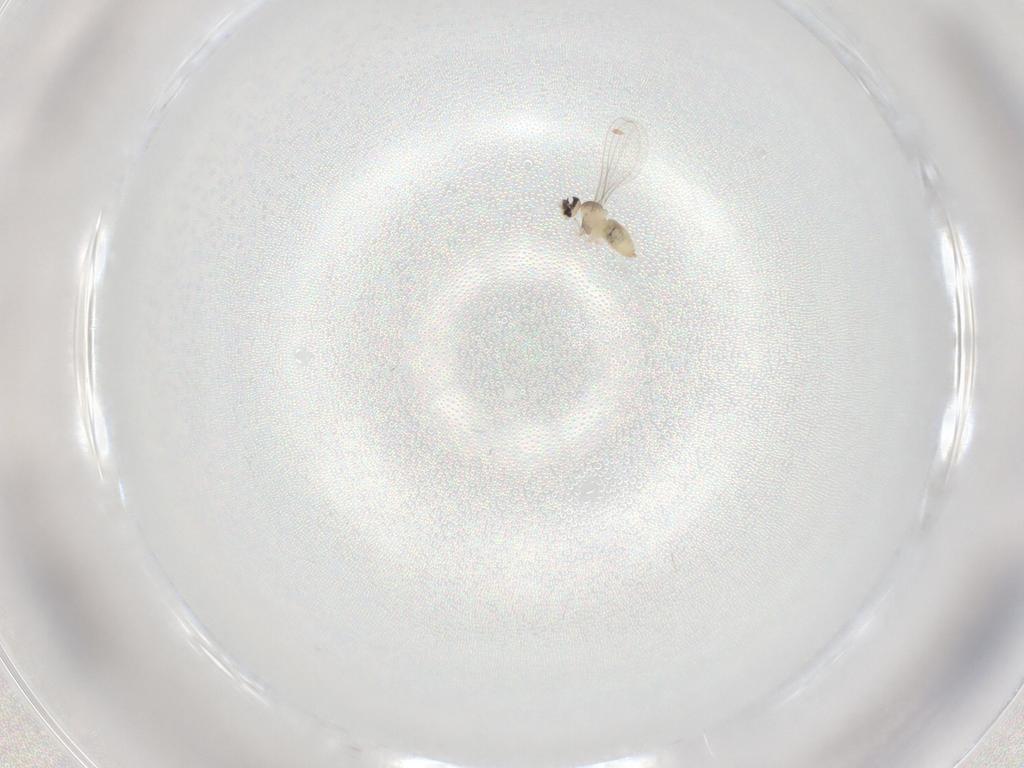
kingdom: Animalia
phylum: Arthropoda
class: Insecta
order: Diptera
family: Cecidomyiidae
